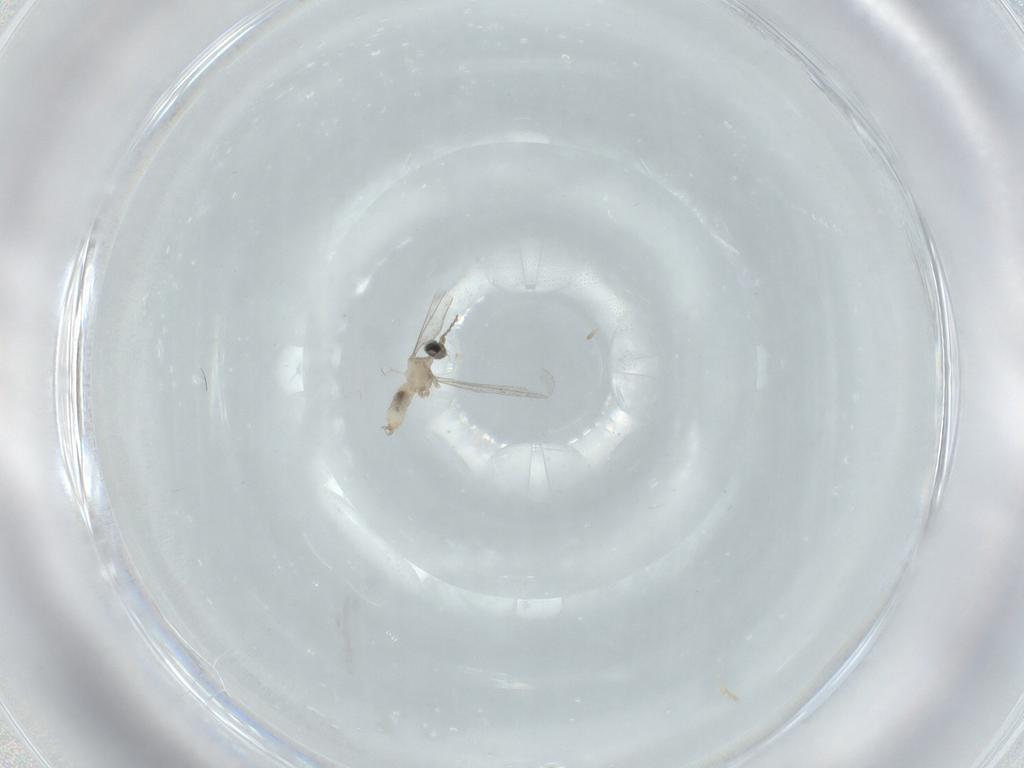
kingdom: Animalia
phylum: Arthropoda
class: Insecta
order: Diptera
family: Cecidomyiidae
